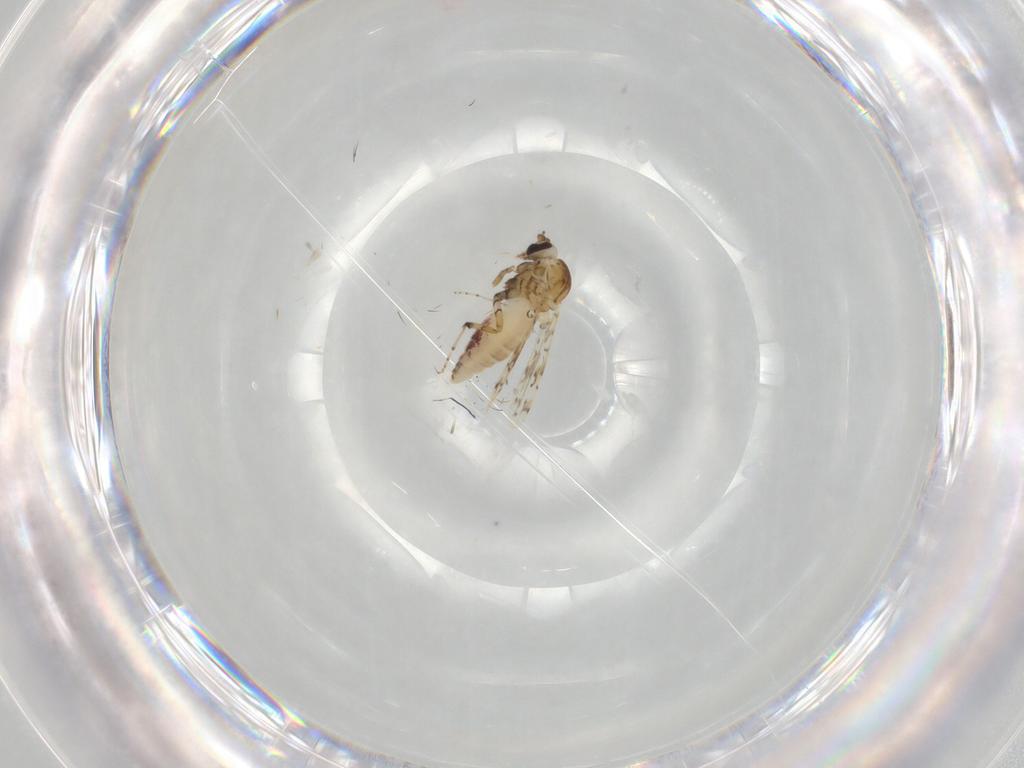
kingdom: Animalia
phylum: Arthropoda
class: Insecta
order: Diptera
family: Ceratopogonidae
